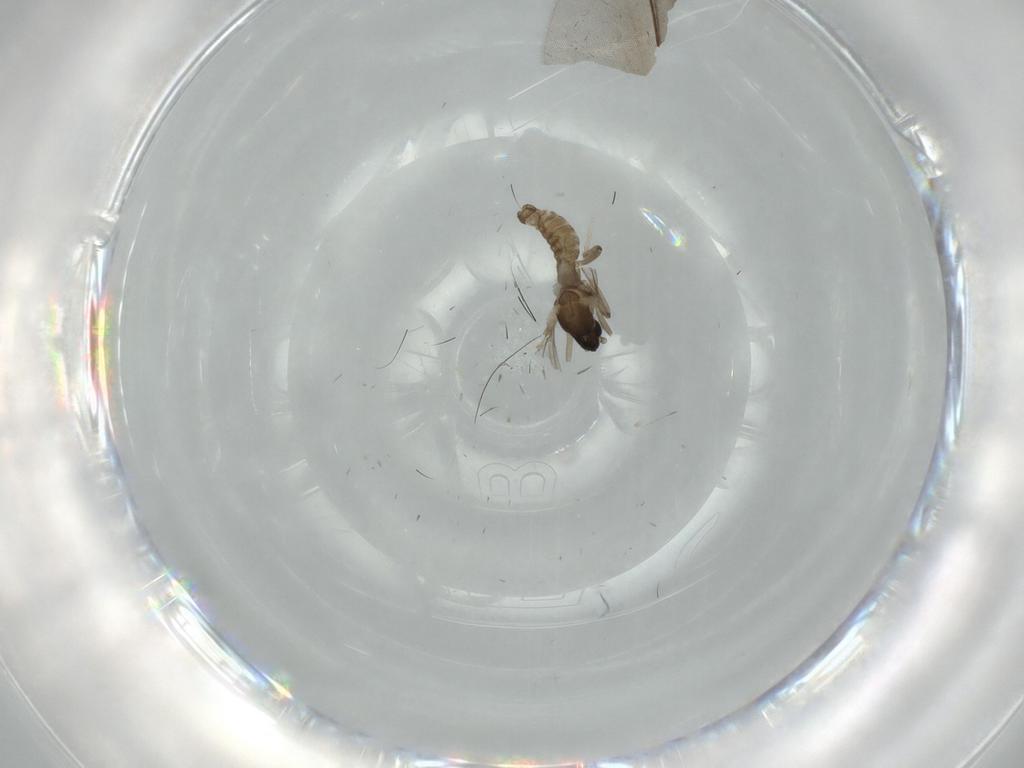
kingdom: Animalia
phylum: Arthropoda
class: Insecta
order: Diptera
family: Cecidomyiidae
